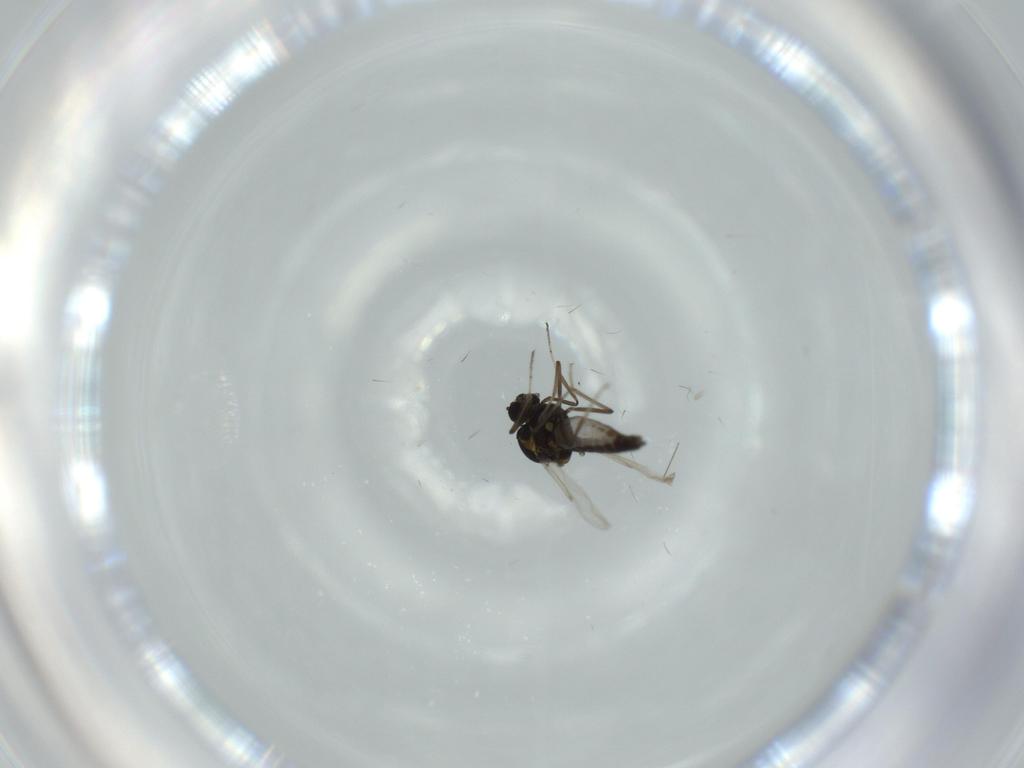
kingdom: Animalia
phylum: Arthropoda
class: Insecta
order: Diptera
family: Chironomidae
